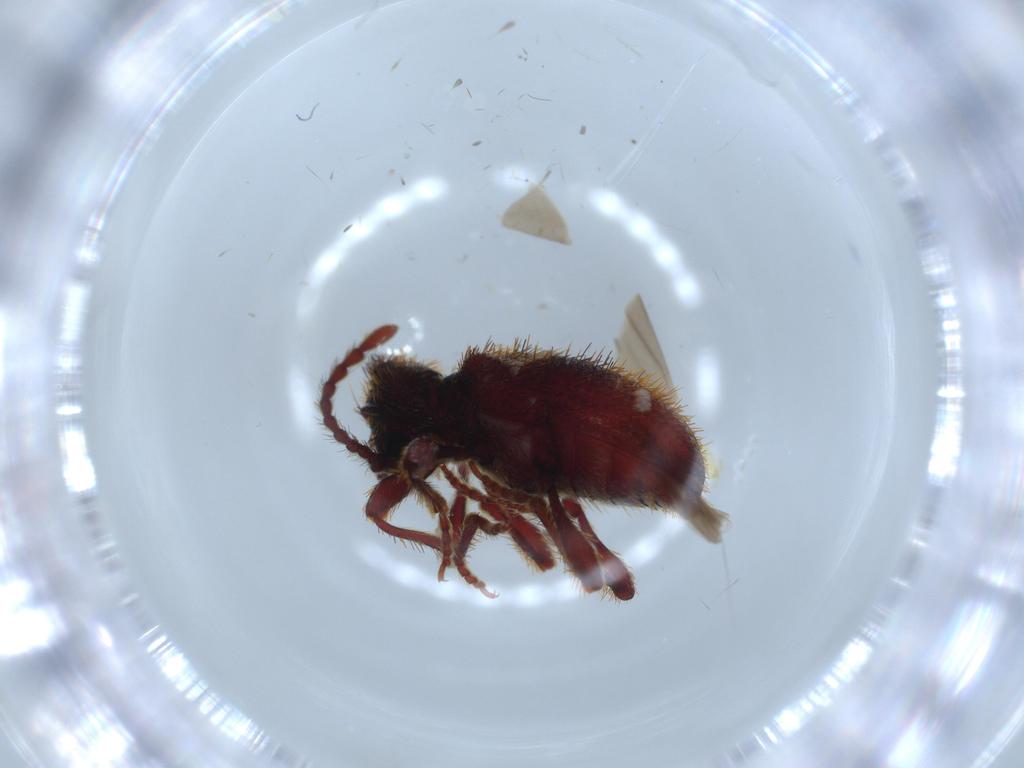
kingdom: Animalia
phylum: Arthropoda
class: Insecta
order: Coleoptera
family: Ptinidae
